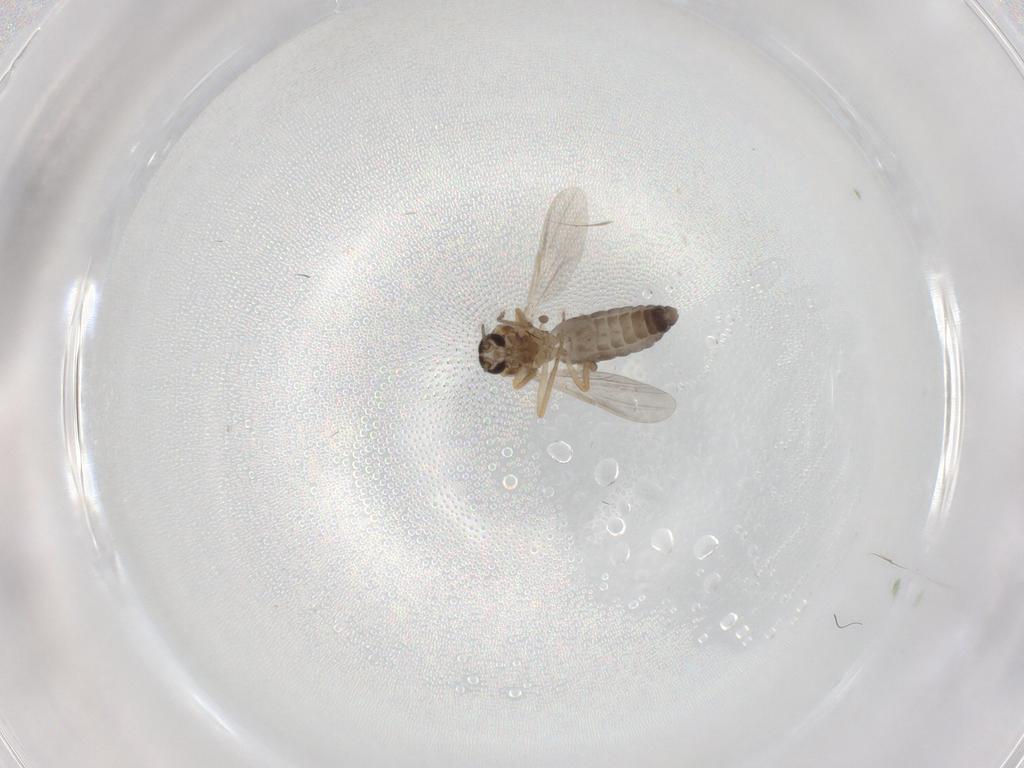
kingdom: Animalia
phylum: Arthropoda
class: Insecta
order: Diptera
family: Ceratopogonidae
